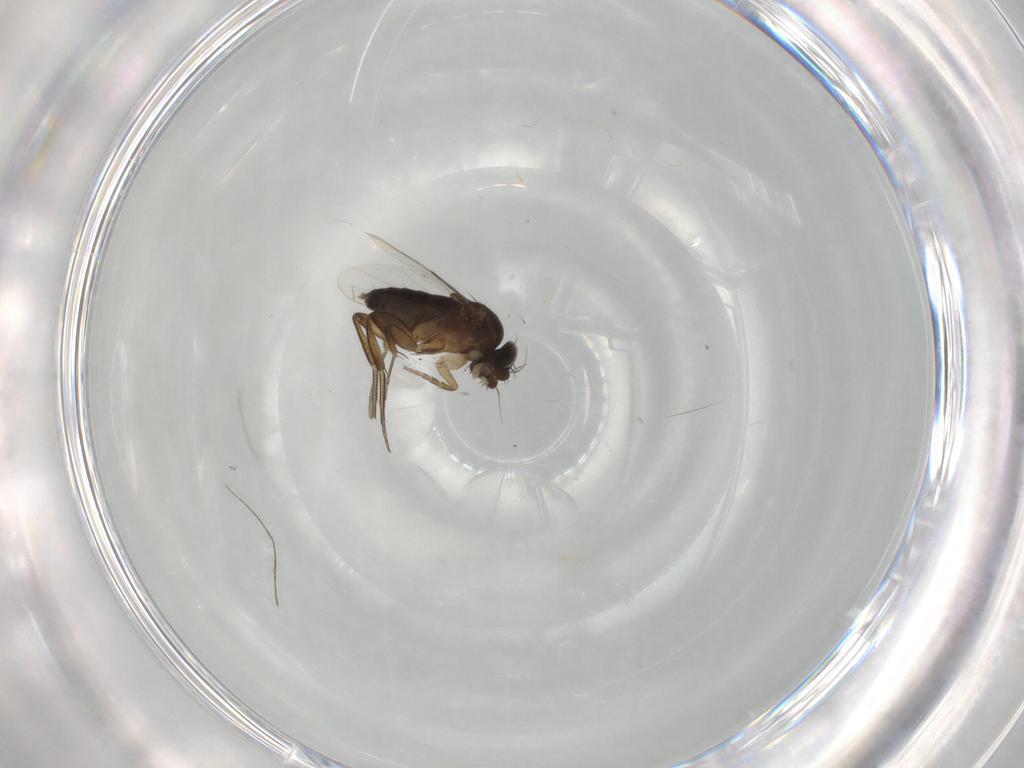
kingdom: Animalia
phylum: Arthropoda
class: Insecta
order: Diptera
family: Phoridae
